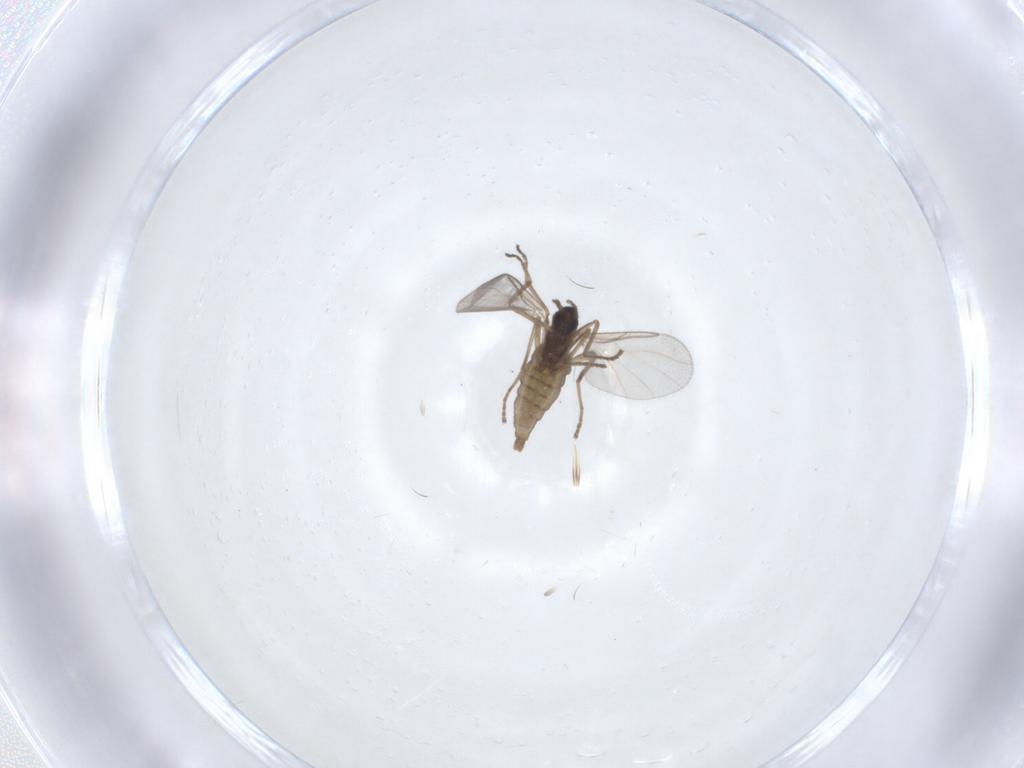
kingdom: Animalia
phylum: Arthropoda
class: Insecta
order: Diptera
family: Cecidomyiidae
